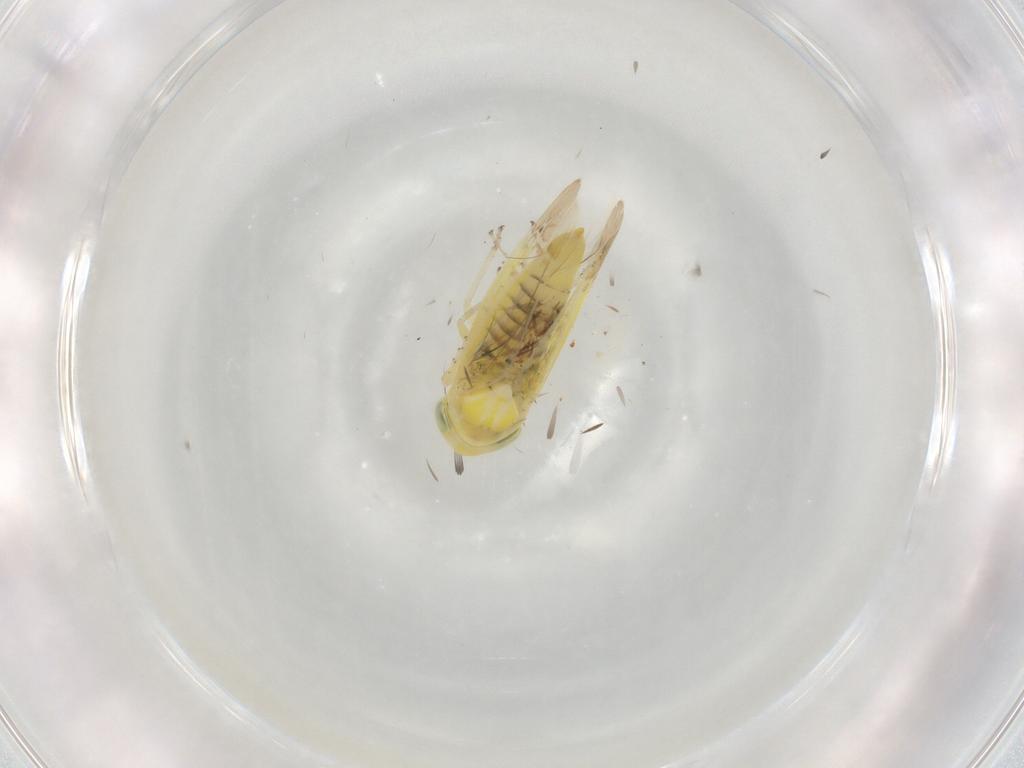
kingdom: Animalia
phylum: Arthropoda
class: Insecta
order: Hemiptera
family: Cicadellidae
